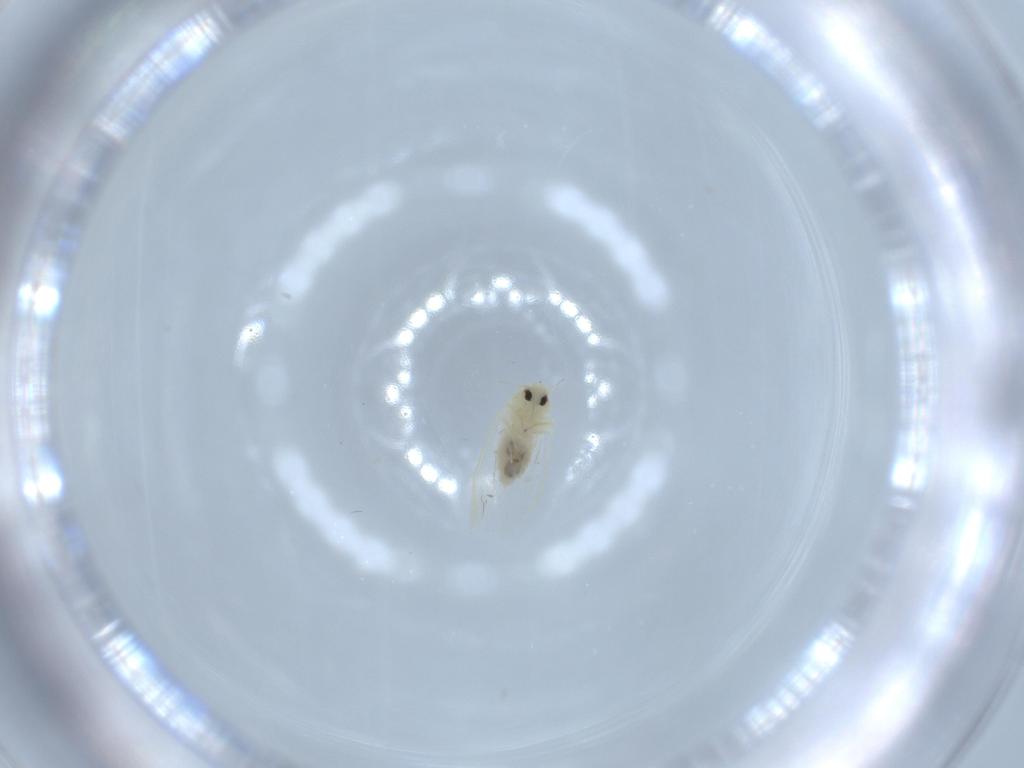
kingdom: Animalia
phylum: Arthropoda
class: Insecta
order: Hemiptera
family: Aleyrodidae
